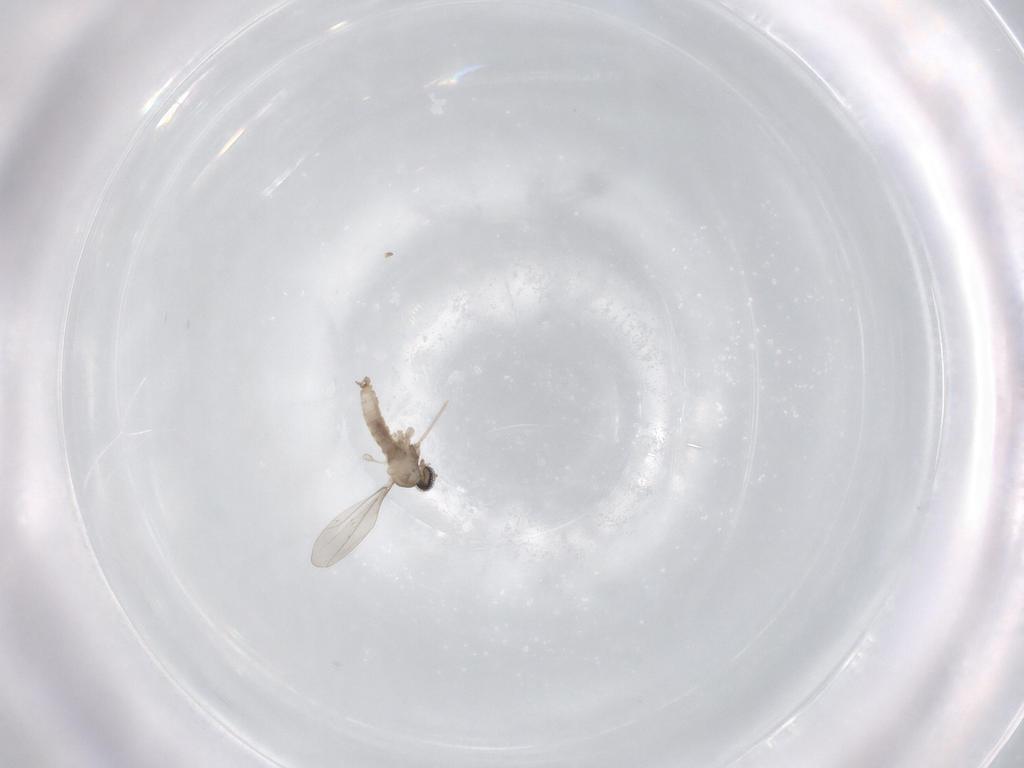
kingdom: Animalia
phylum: Arthropoda
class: Insecta
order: Diptera
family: Cecidomyiidae
